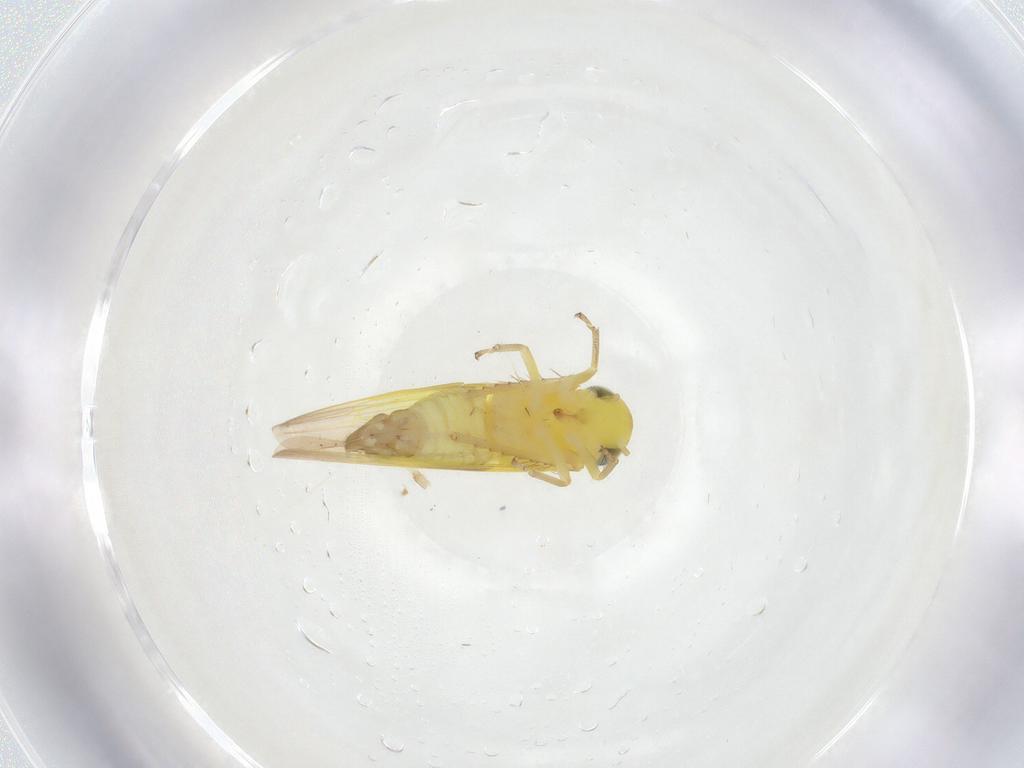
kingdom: Animalia
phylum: Arthropoda
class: Insecta
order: Hemiptera
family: Cicadellidae
